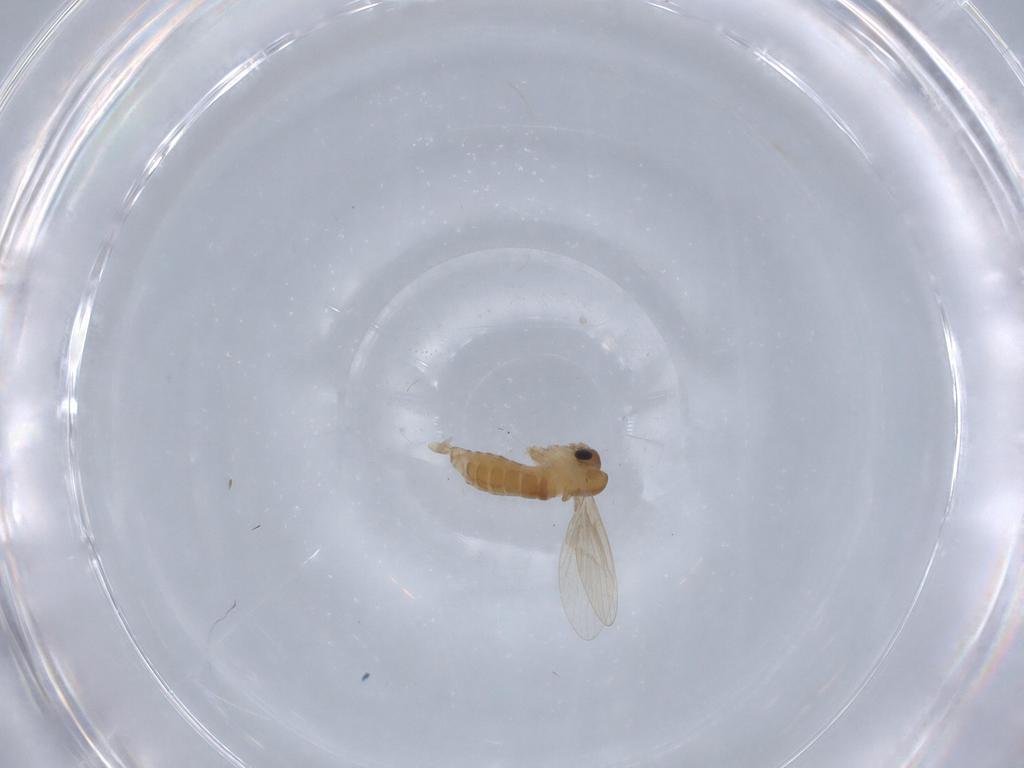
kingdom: Animalia
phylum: Arthropoda
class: Insecta
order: Diptera
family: Psychodidae
